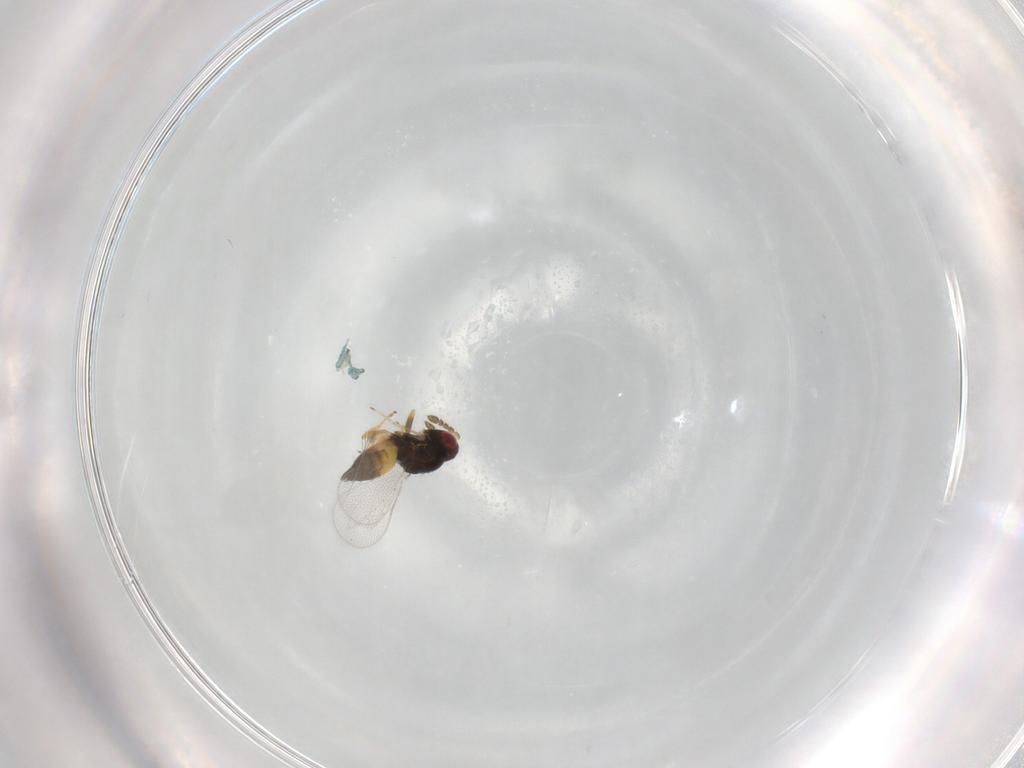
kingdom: Animalia
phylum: Arthropoda
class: Insecta
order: Hymenoptera
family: Eulophidae
